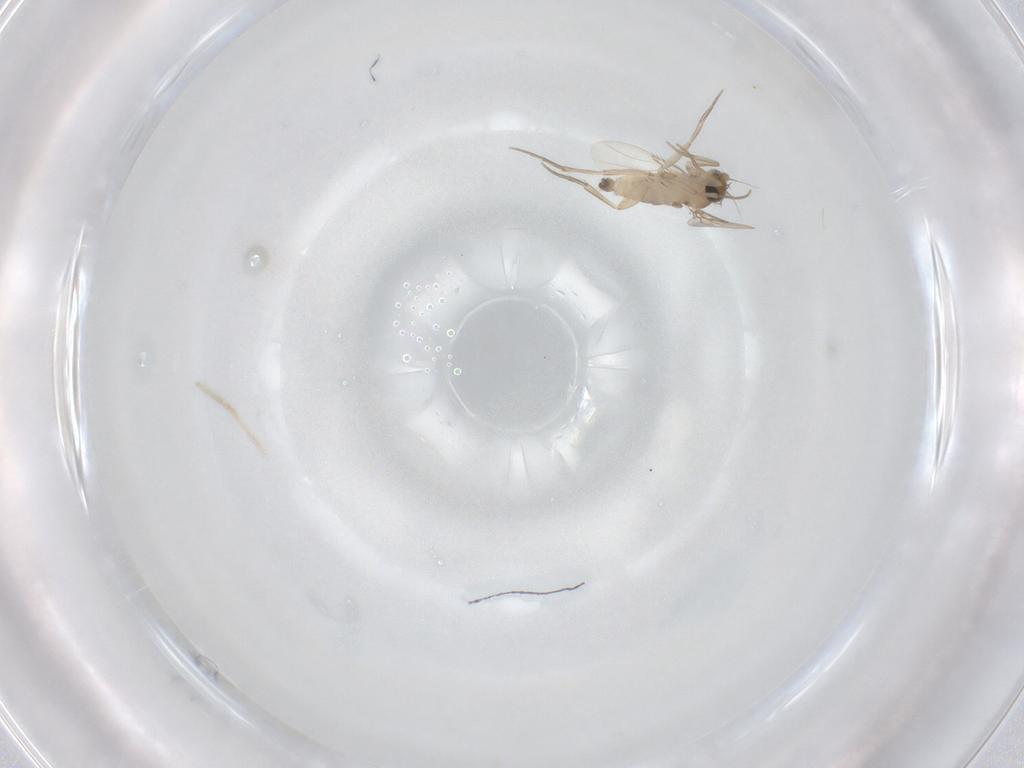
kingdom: Animalia
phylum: Arthropoda
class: Insecta
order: Diptera
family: Phoridae
